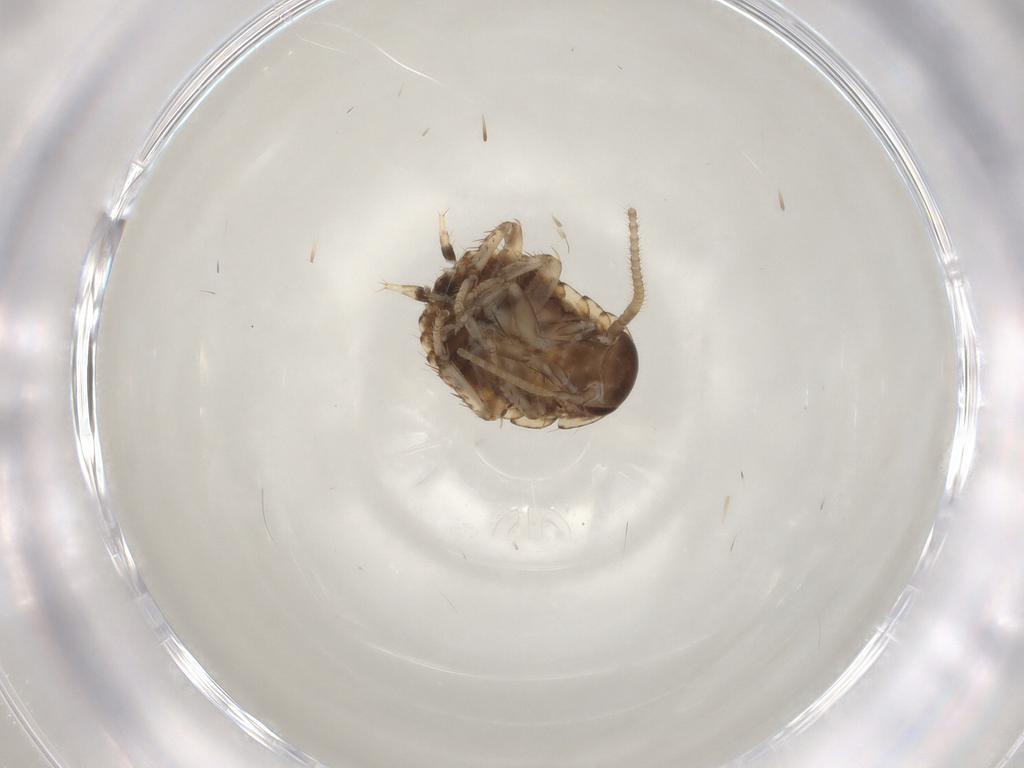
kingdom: Animalia
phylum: Arthropoda
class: Insecta
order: Blattodea
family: Blaberidae
